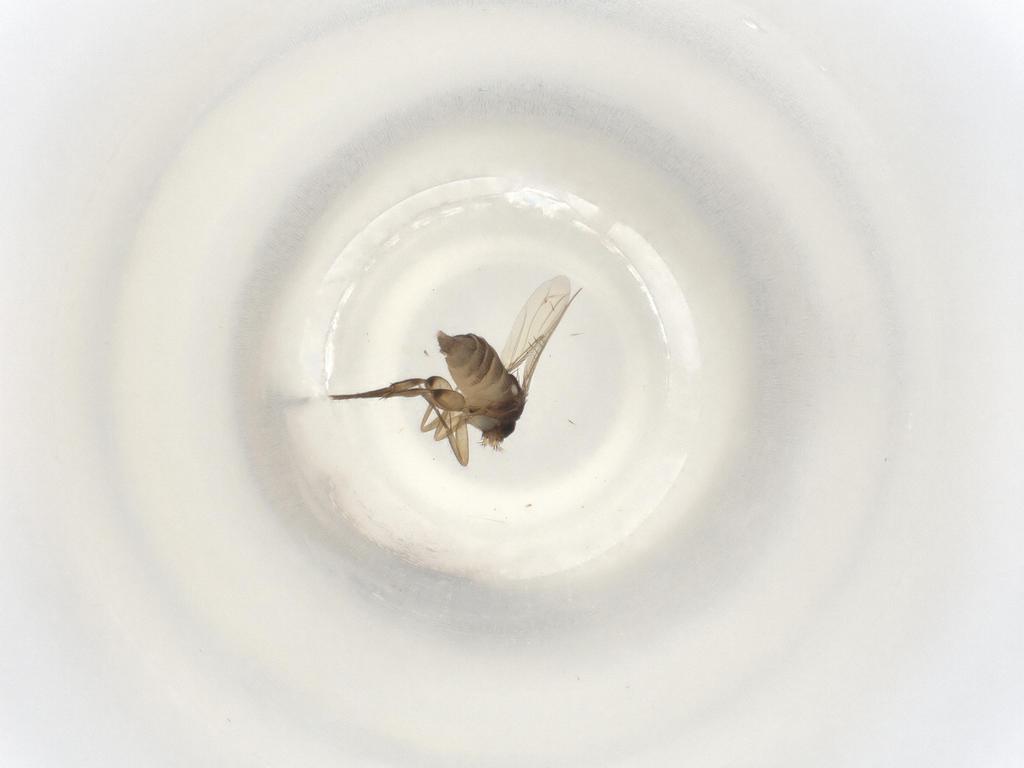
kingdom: Animalia
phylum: Arthropoda
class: Insecta
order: Diptera
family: Phoridae
